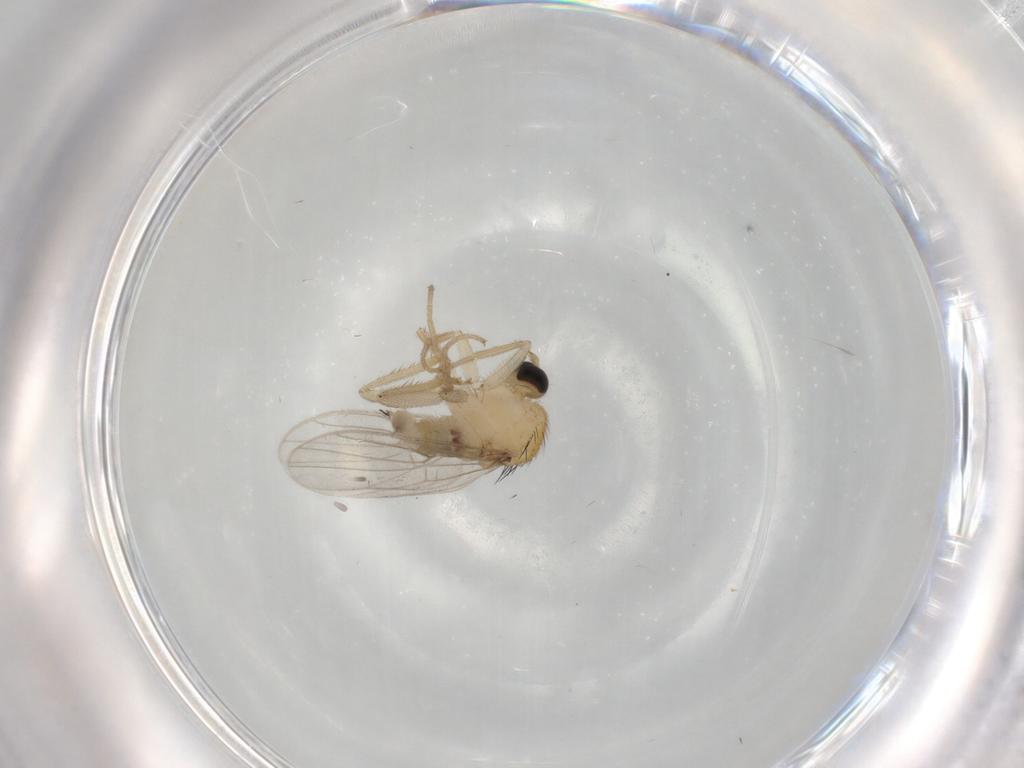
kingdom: Animalia
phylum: Arthropoda
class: Insecta
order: Diptera
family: Hybotidae
